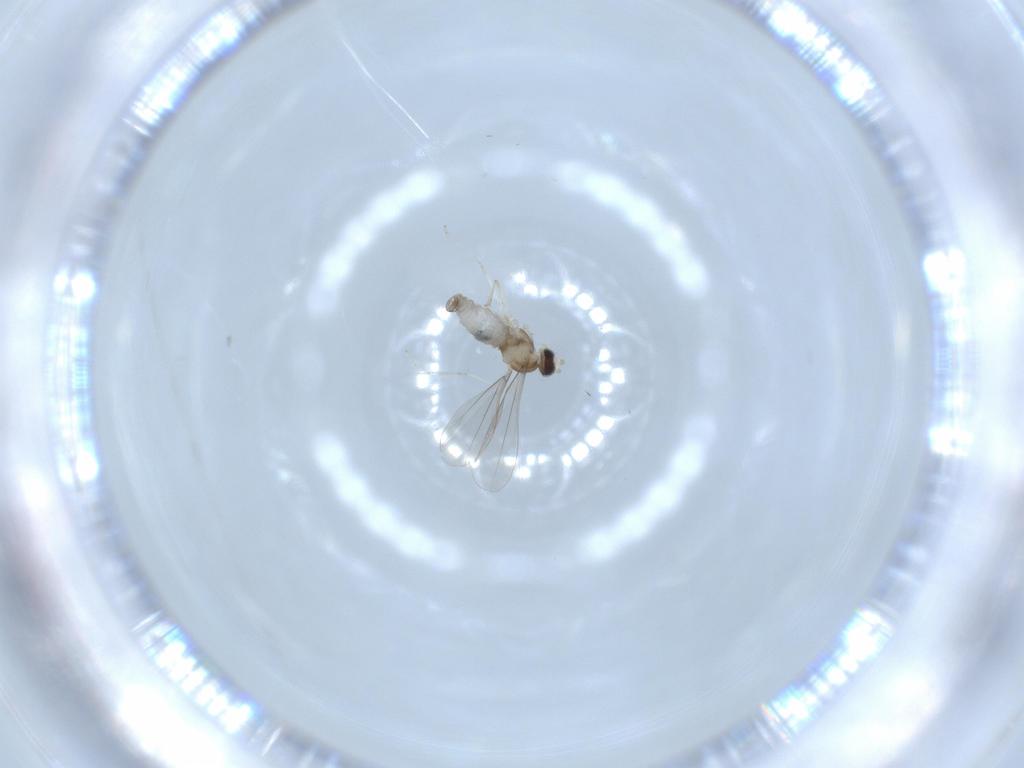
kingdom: Animalia
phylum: Arthropoda
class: Insecta
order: Diptera
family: Cecidomyiidae
